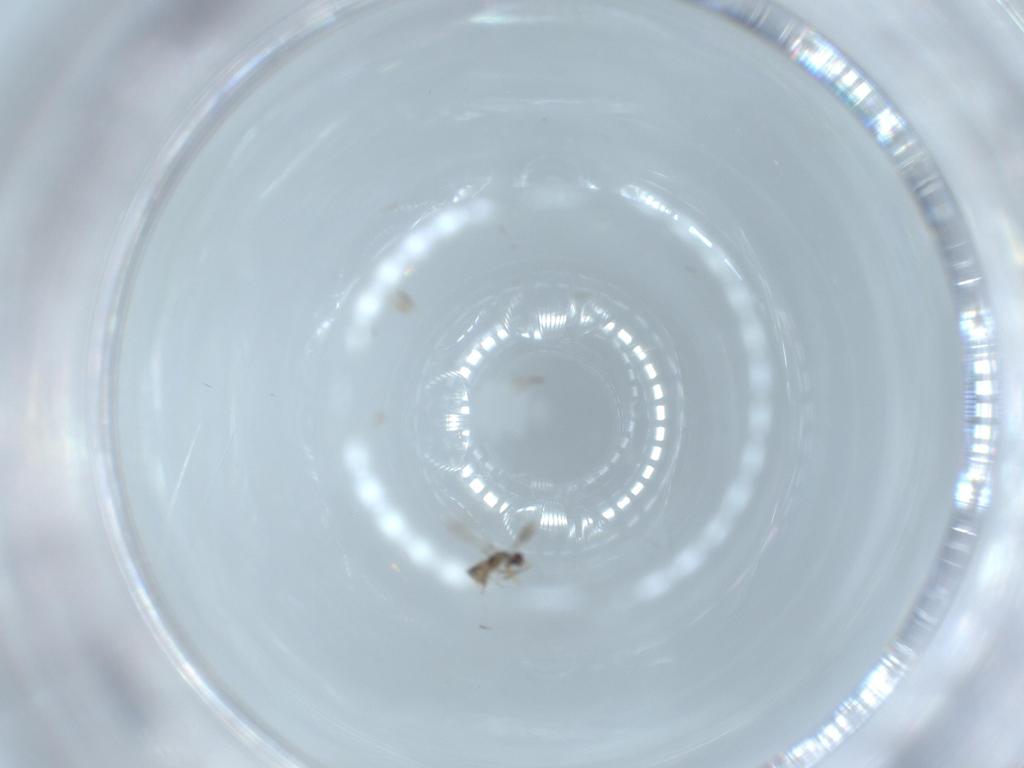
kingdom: Animalia
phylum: Arthropoda
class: Insecta
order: Hymenoptera
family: Mymaridae
